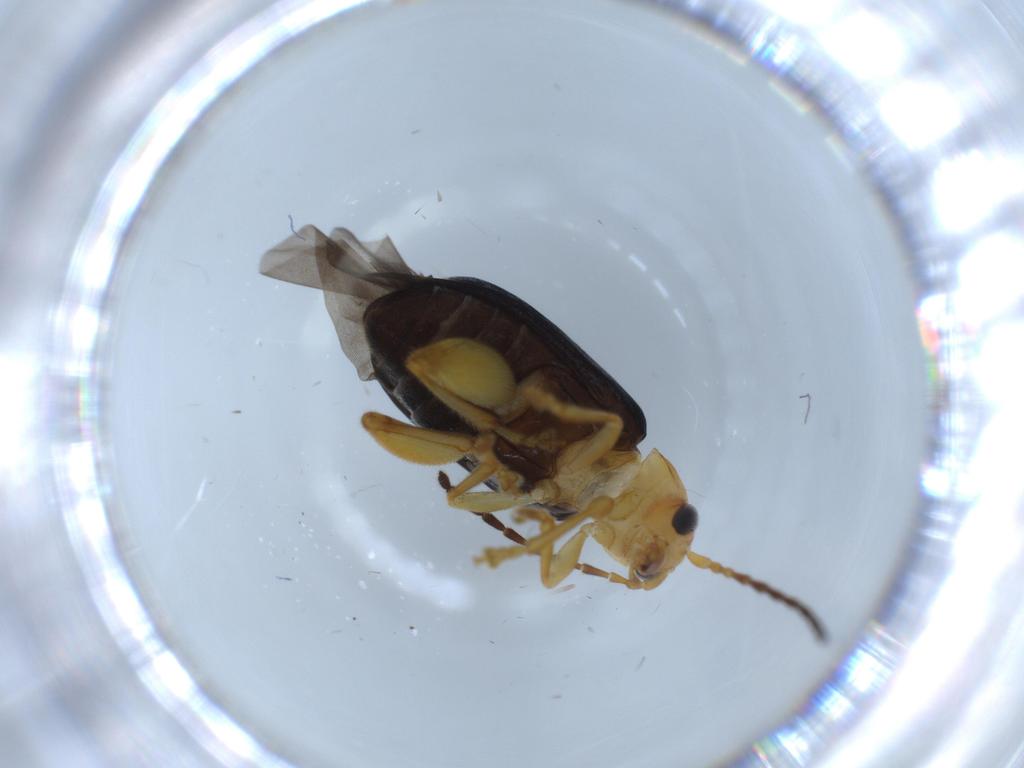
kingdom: Animalia
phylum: Arthropoda
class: Insecta
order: Coleoptera
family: Chrysomelidae
